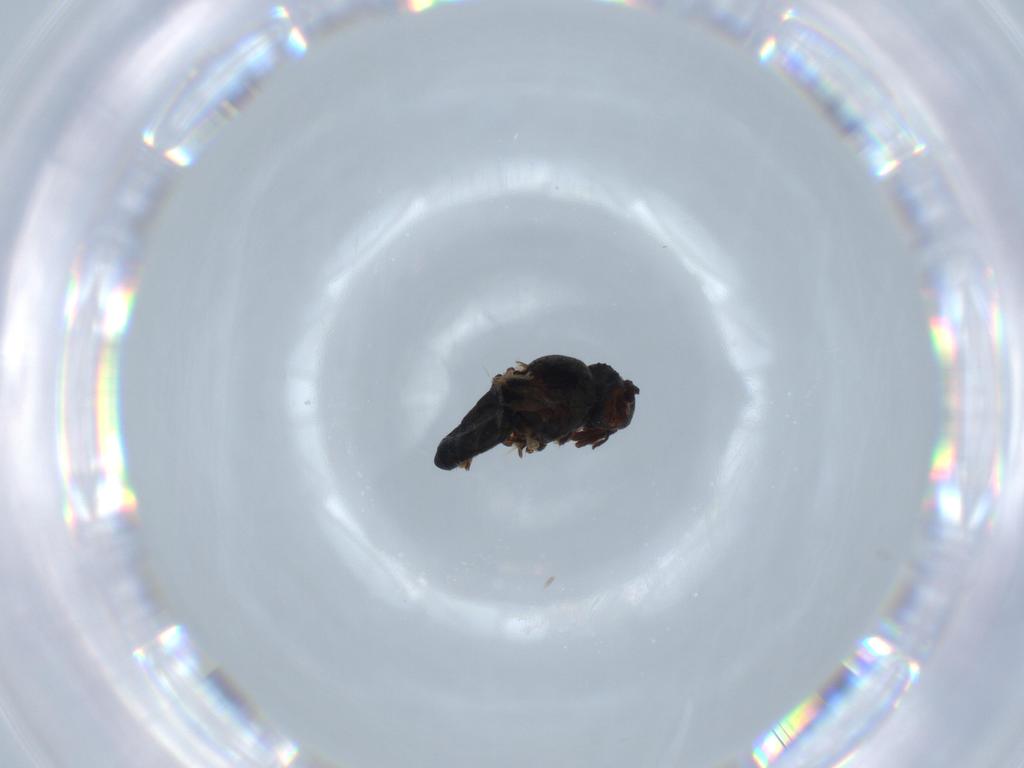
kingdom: Animalia
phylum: Arthropoda
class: Insecta
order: Diptera
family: Ephydridae
